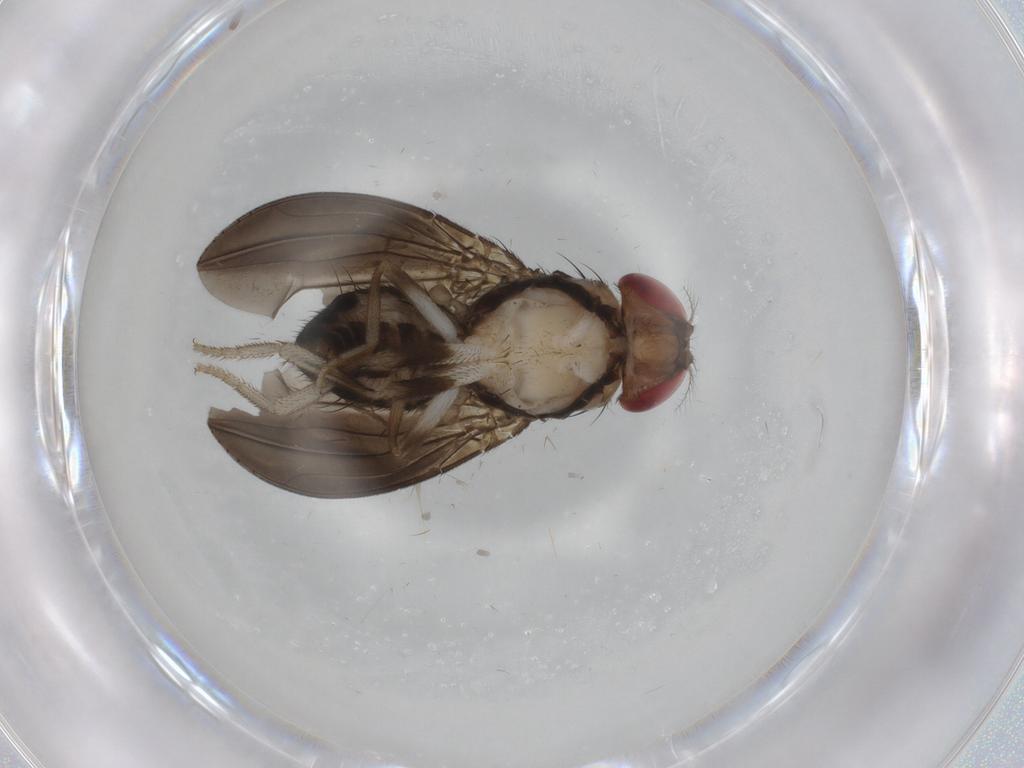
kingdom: Animalia
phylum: Arthropoda
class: Insecta
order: Diptera
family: Drosophilidae
